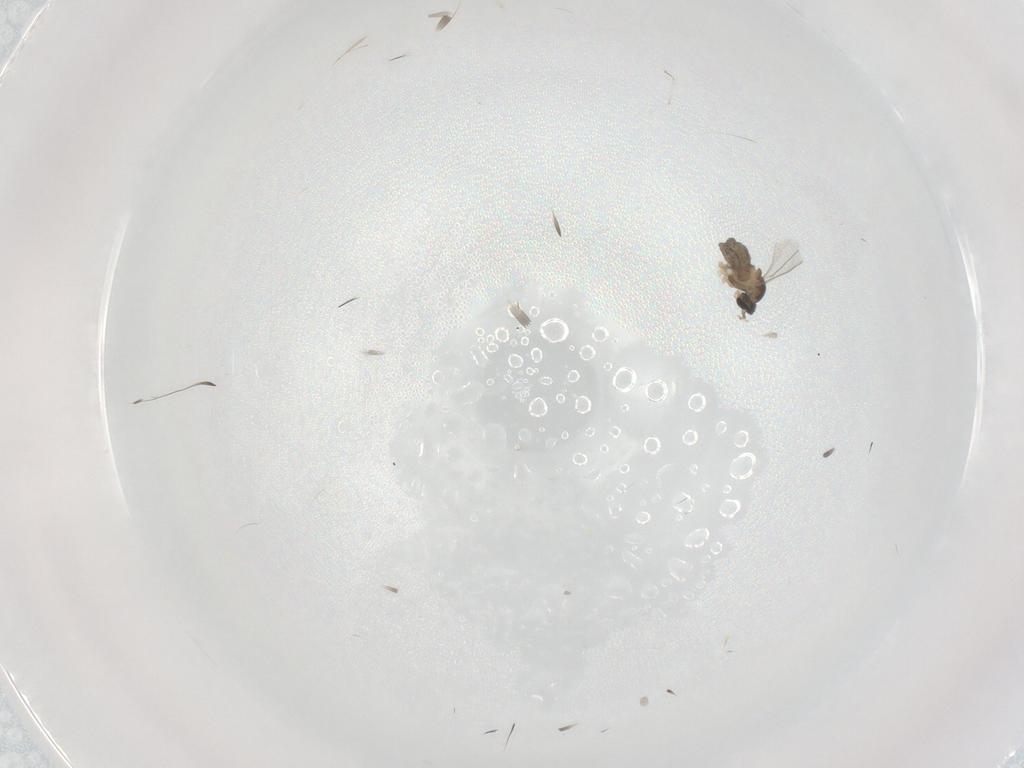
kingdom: Animalia
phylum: Arthropoda
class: Insecta
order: Diptera
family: Cecidomyiidae
